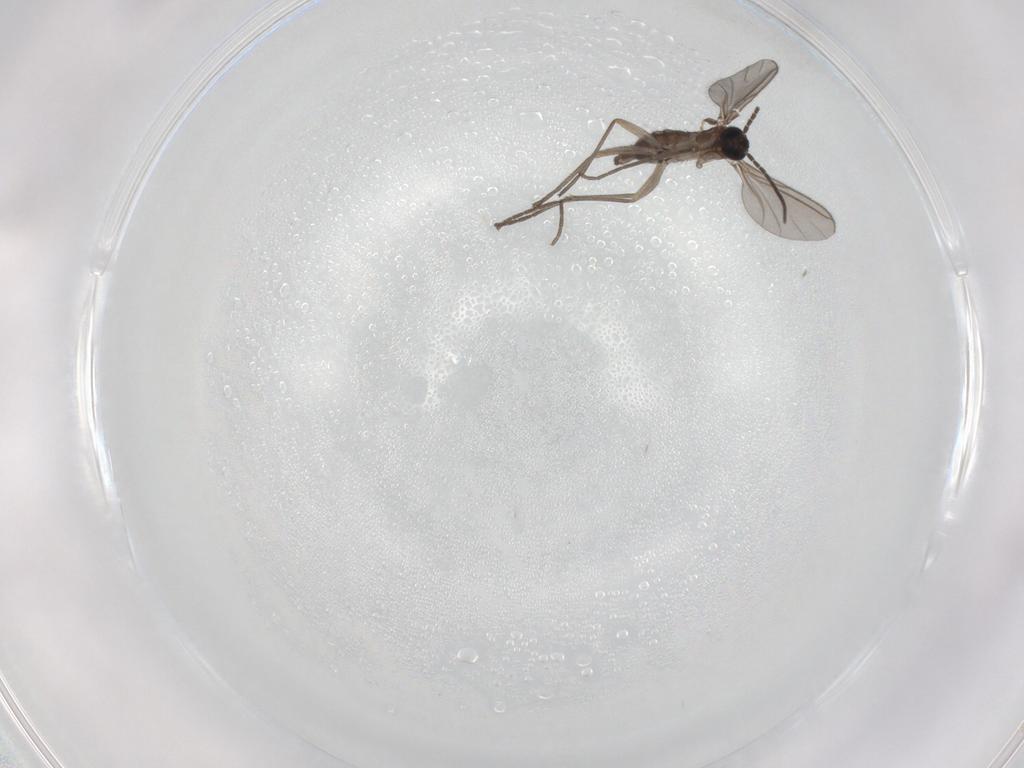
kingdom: Animalia
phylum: Arthropoda
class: Insecta
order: Diptera
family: Sciaridae
